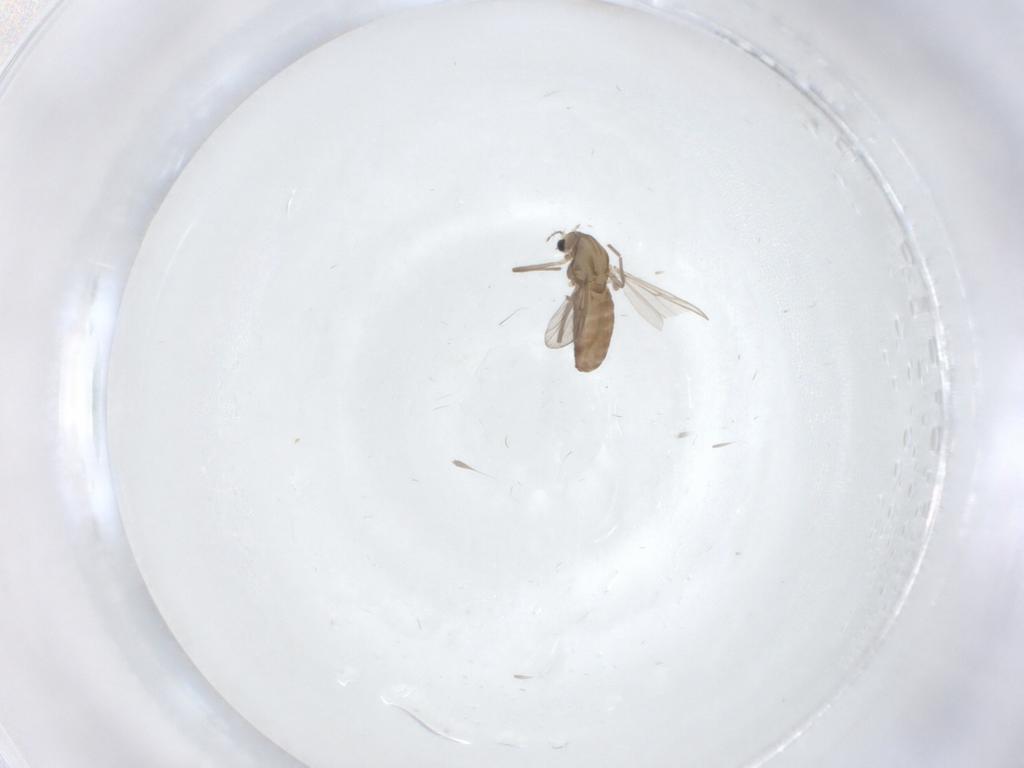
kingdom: Animalia
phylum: Arthropoda
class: Insecta
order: Diptera
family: Chironomidae
